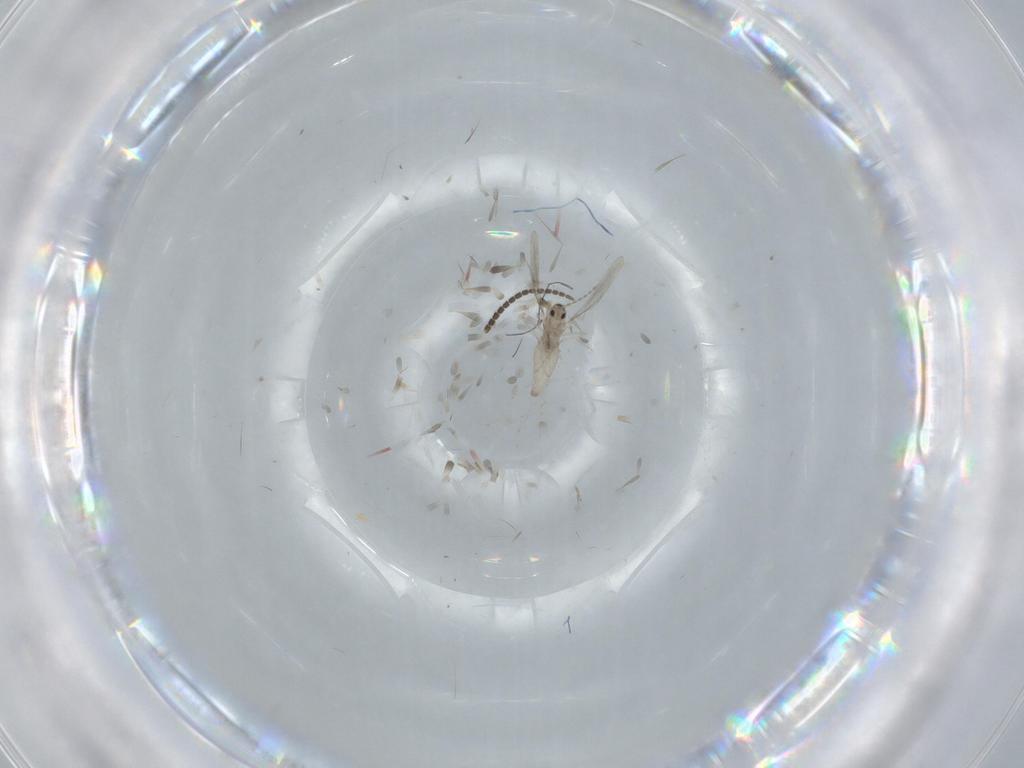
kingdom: Animalia
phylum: Arthropoda
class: Insecta
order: Diptera
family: Sciaridae
